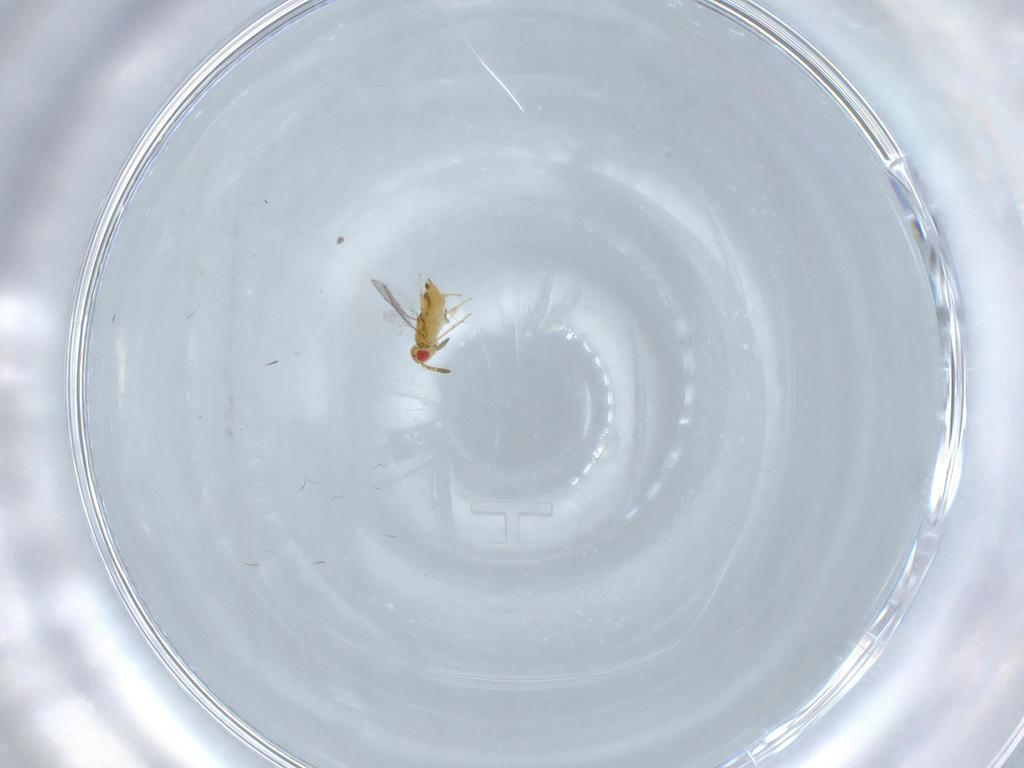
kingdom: Animalia
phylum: Arthropoda
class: Insecta
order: Hymenoptera
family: Aphelinidae
